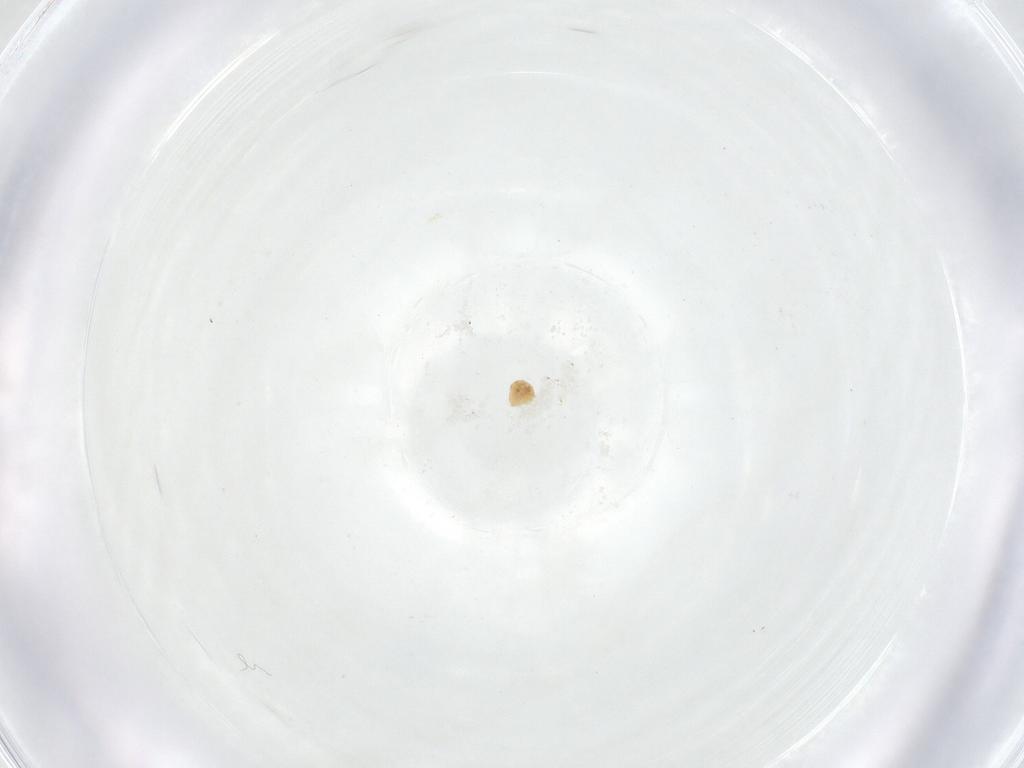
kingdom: Animalia
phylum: Arthropoda
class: Insecta
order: Diptera
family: Fergusoninidae
